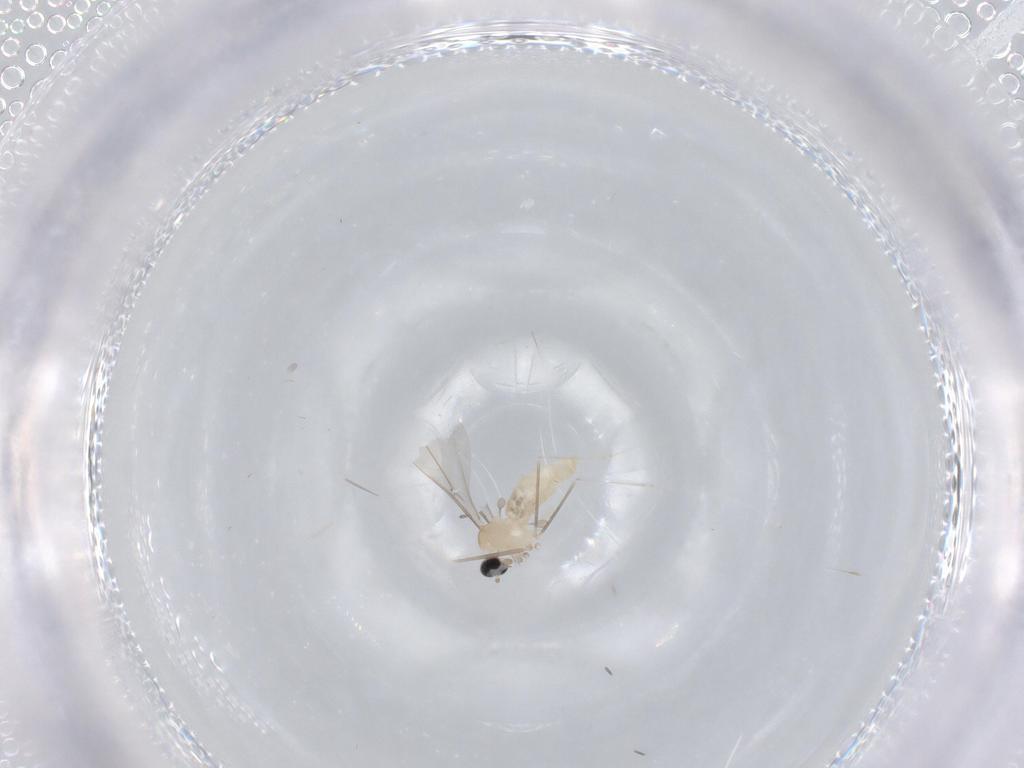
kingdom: Animalia
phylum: Arthropoda
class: Insecta
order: Diptera
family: Cecidomyiidae
